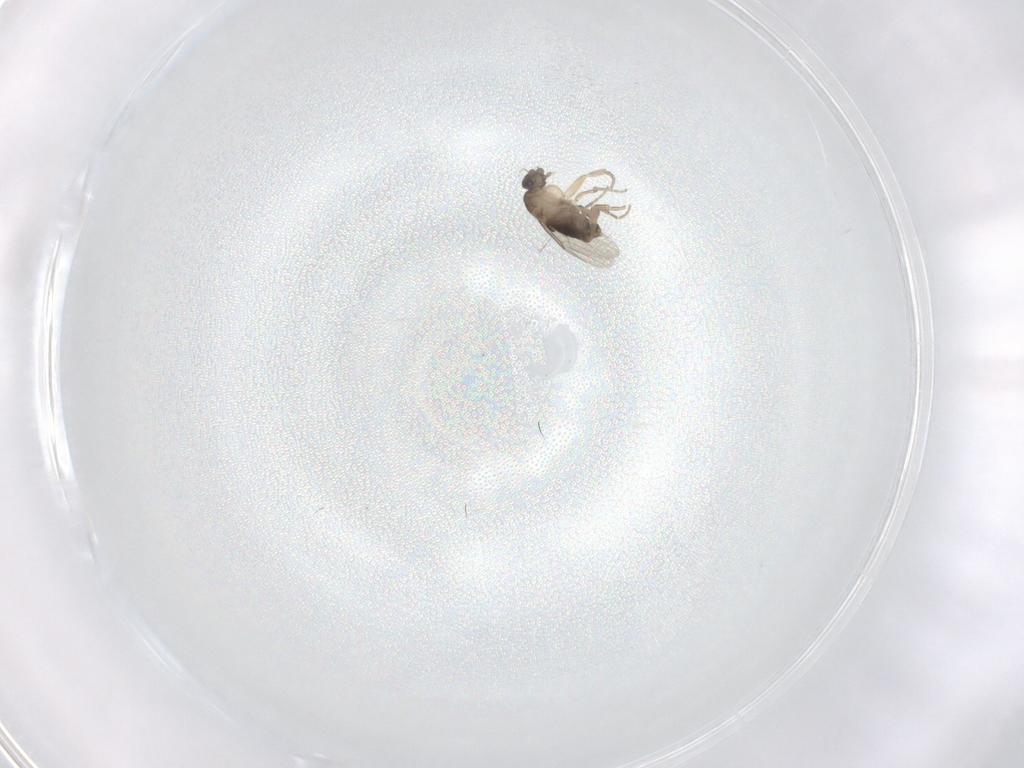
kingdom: Animalia
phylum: Arthropoda
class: Insecta
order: Diptera
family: Phoridae
